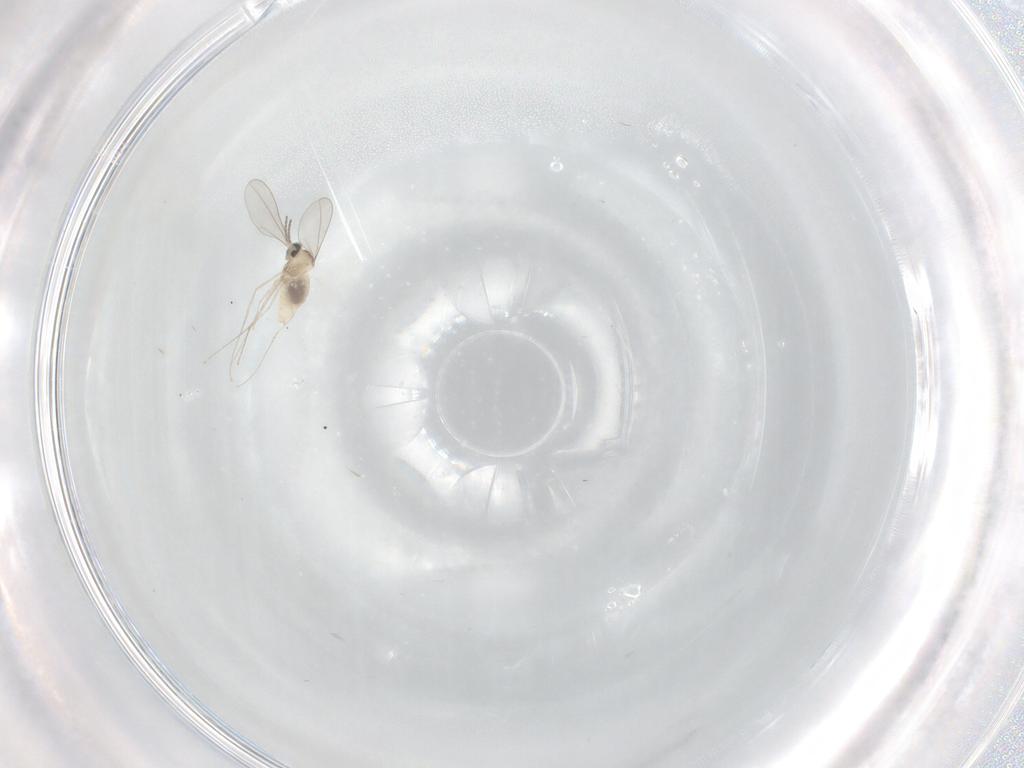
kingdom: Animalia
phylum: Arthropoda
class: Insecta
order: Diptera
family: Cecidomyiidae
